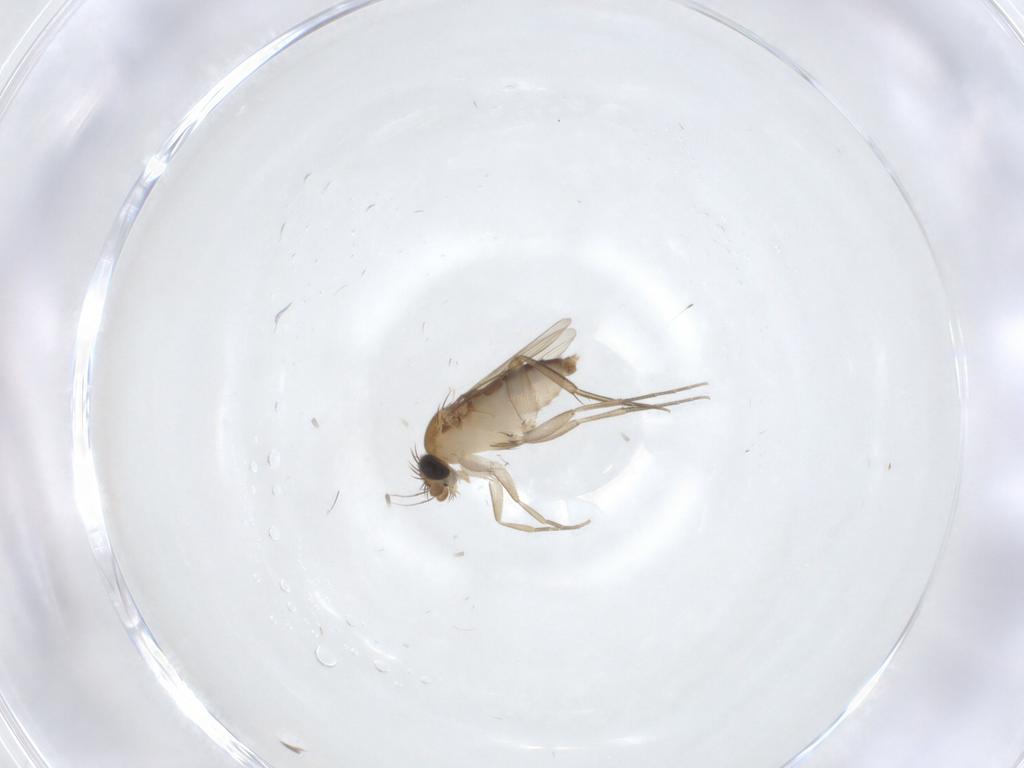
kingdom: Animalia
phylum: Arthropoda
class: Insecta
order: Diptera
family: Phoridae
